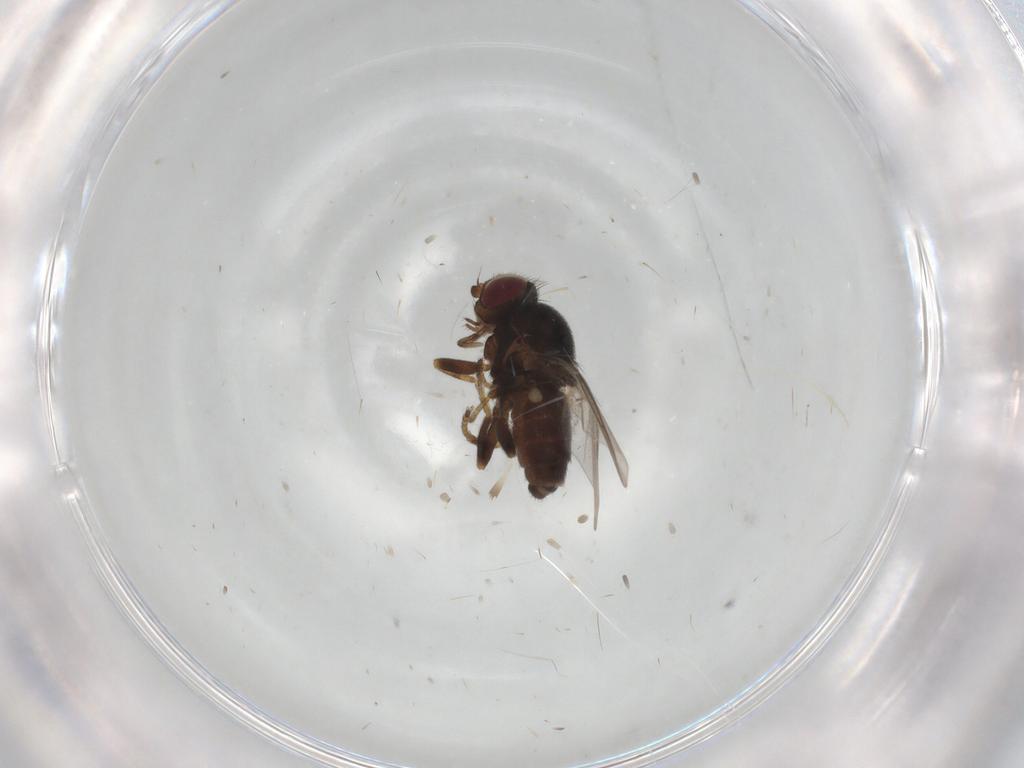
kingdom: Animalia
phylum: Arthropoda
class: Insecta
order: Diptera
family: Chloropidae
